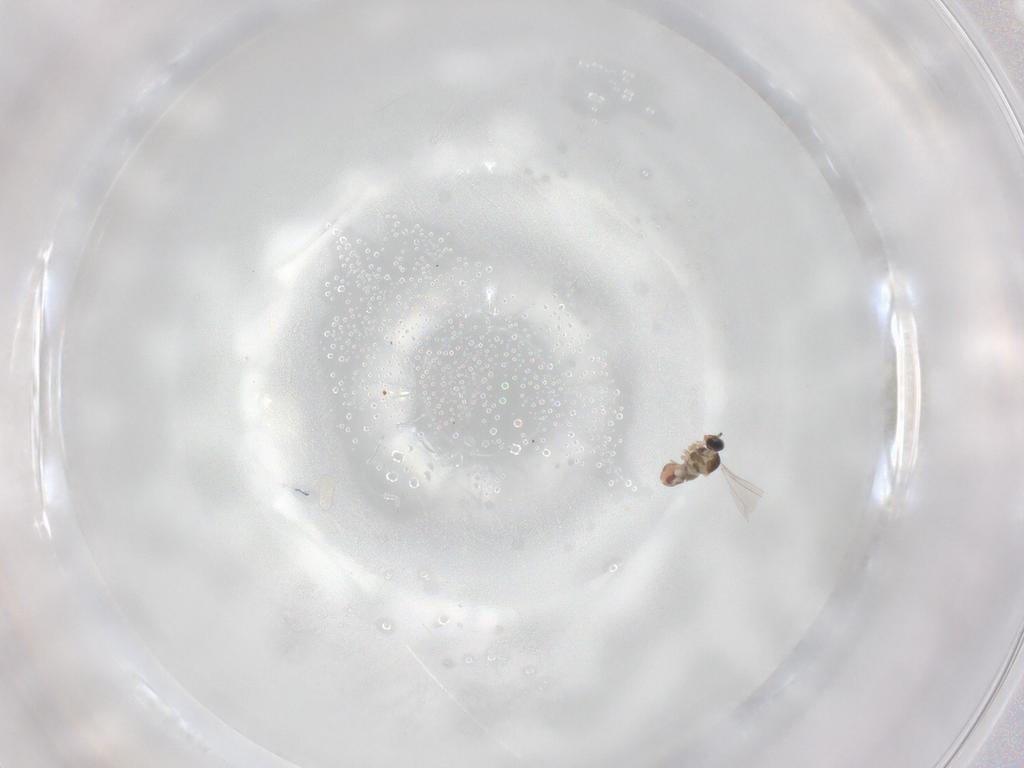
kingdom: Animalia
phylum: Arthropoda
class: Insecta
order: Diptera
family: Cecidomyiidae
